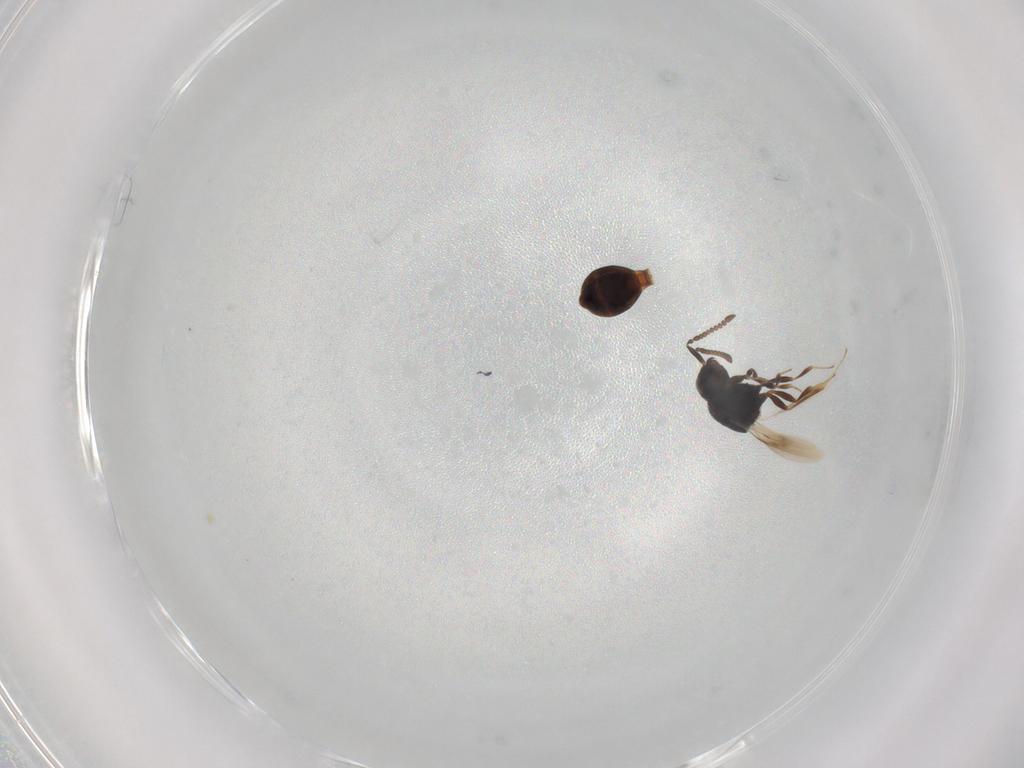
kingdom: Animalia
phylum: Arthropoda
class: Insecta
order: Hymenoptera
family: Scelionidae
